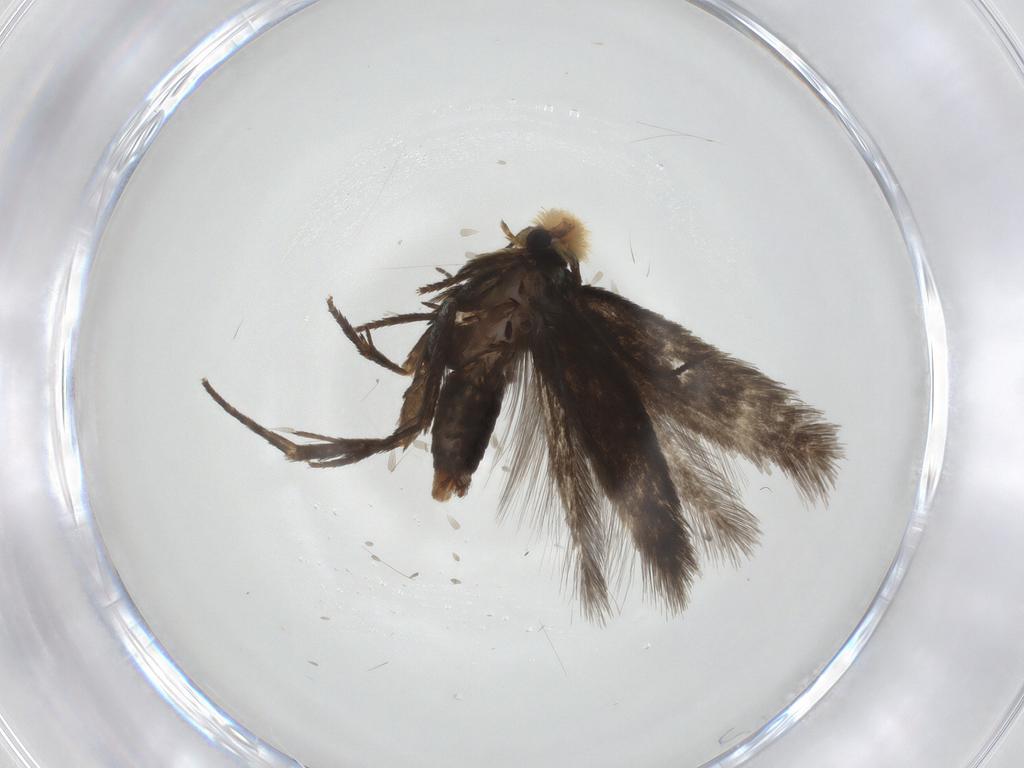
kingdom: Animalia
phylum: Arthropoda
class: Insecta
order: Lepidoptera
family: Nepticulidae
